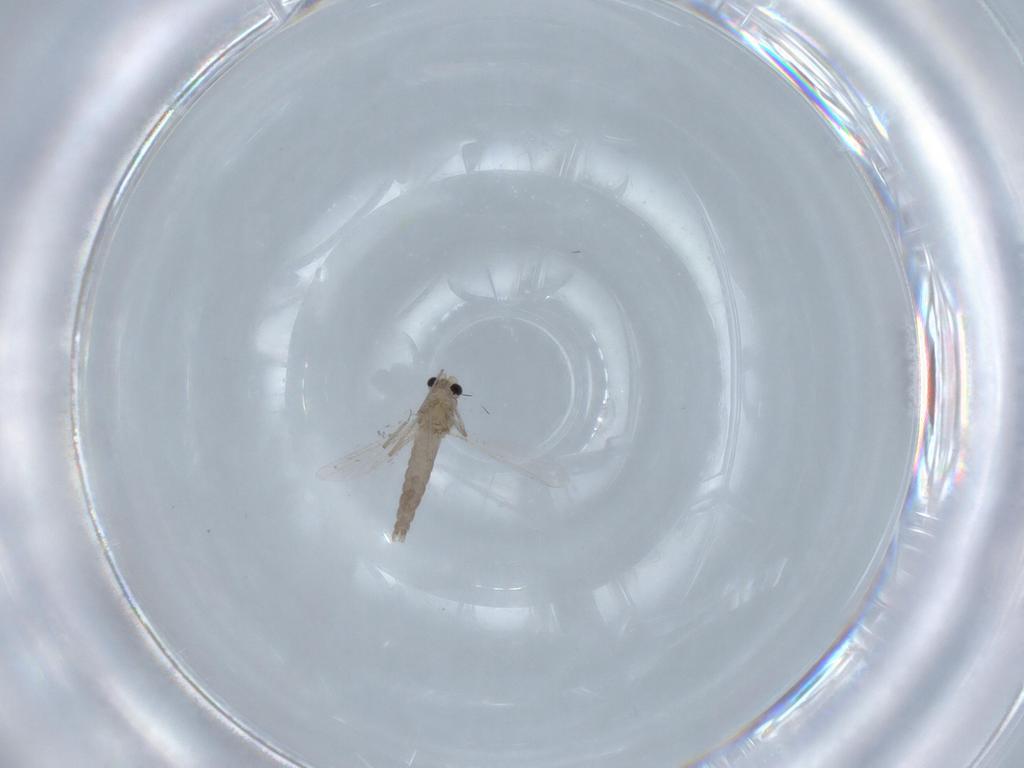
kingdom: Animalia
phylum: Arthropoda
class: Insecta
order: Diptera
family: Chironomidae
